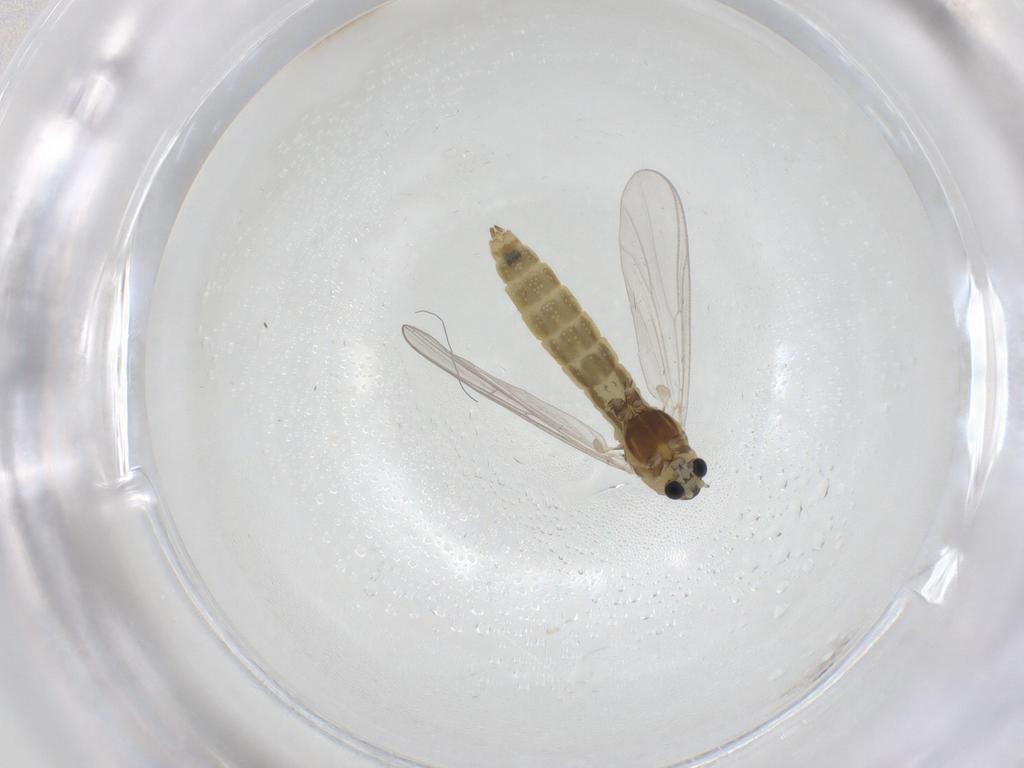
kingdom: Animalia
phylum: Arthropoda
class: Insecta
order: Diptera
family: Chironomidae
